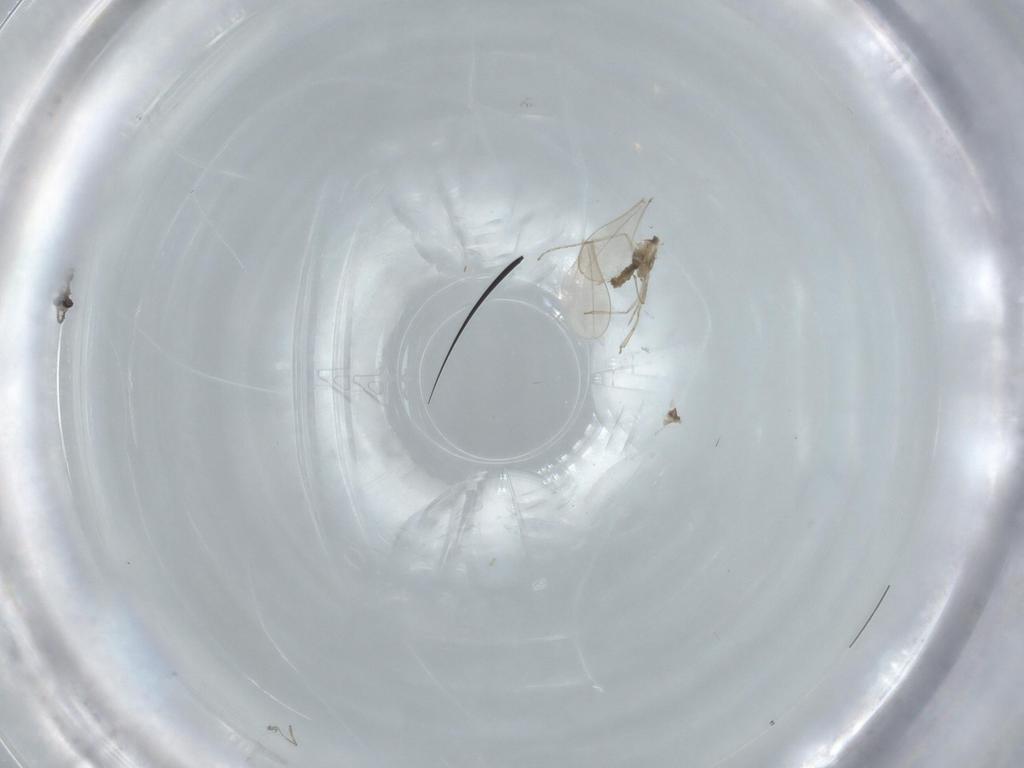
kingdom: Animalia
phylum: Arthropoda
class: Insecta
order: Diptera
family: Cecidomyiidae
